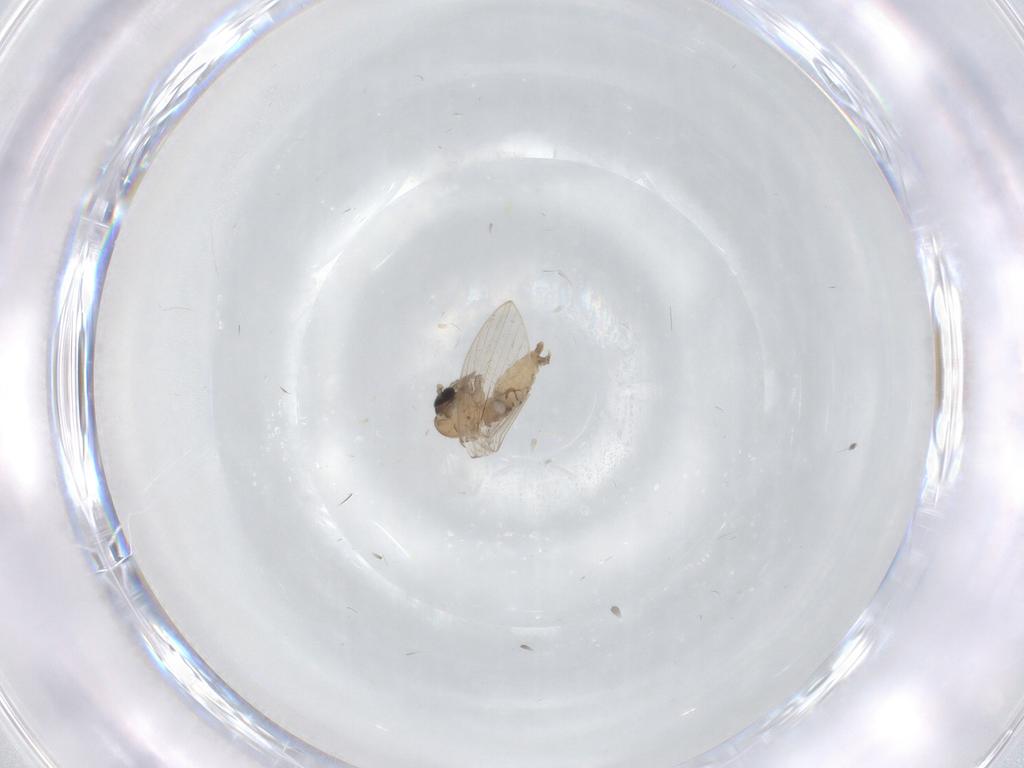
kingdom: Animalia
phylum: Arthropoda
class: Insecta
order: Diptera
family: Psychodidae
